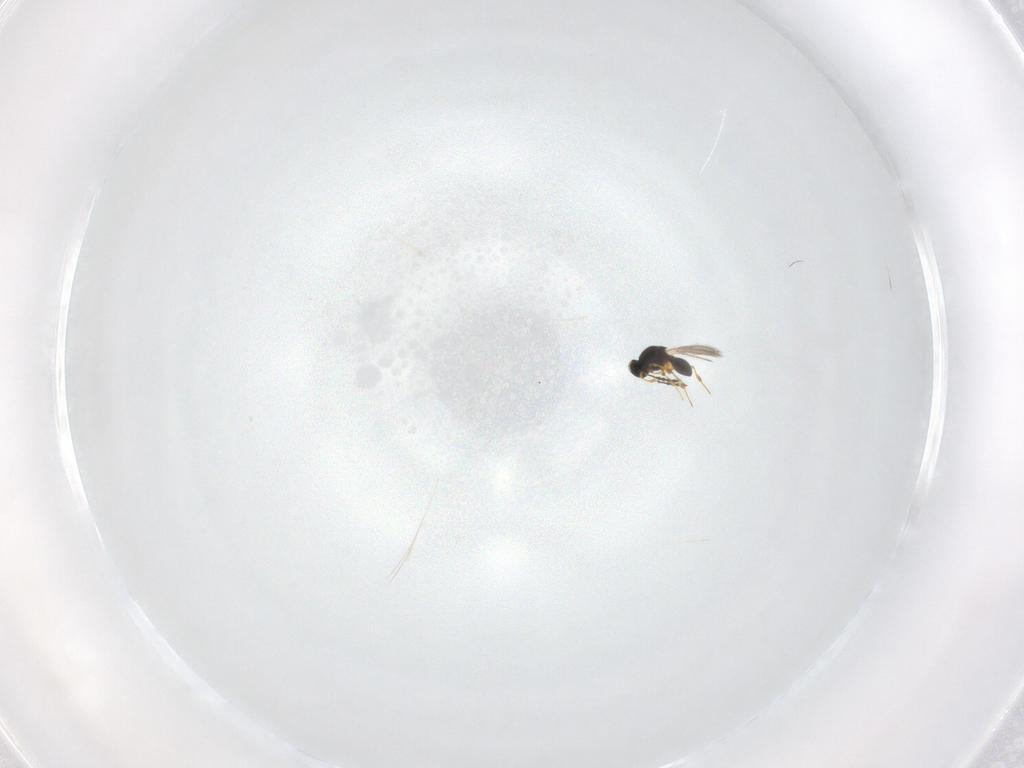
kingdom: Animalia
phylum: Arthropoda
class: Insecta
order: Hymenoptera
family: Platygastridae
